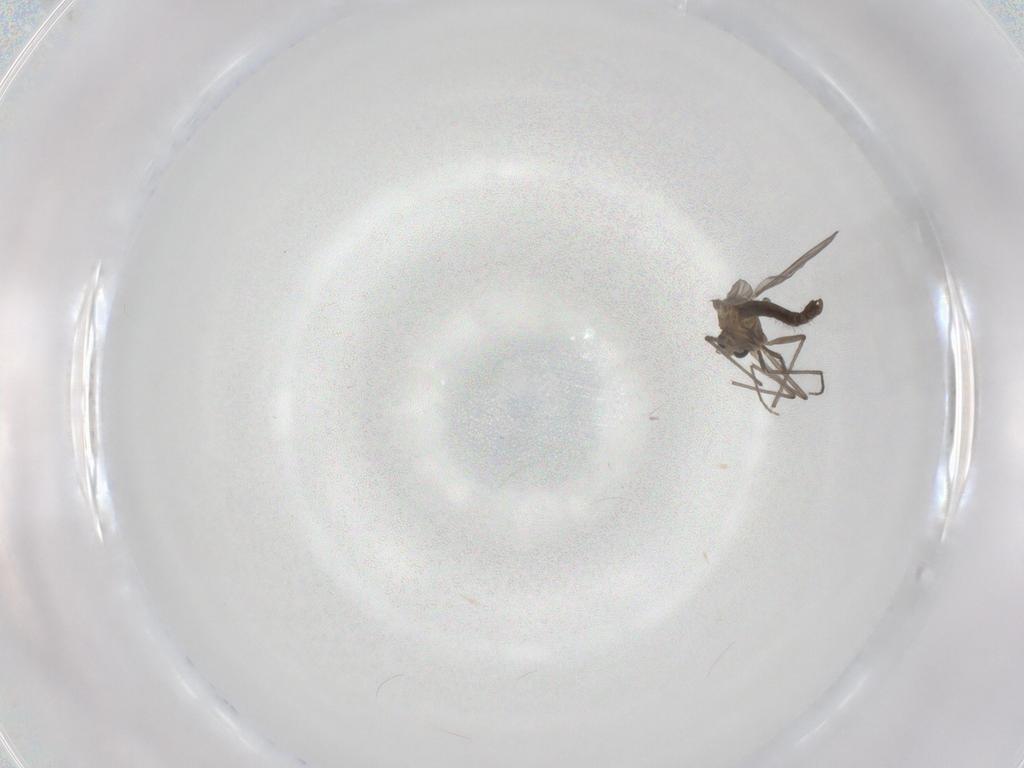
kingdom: Animalia
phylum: Arthropoda
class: Insecta
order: Diptera
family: Chironomidae
